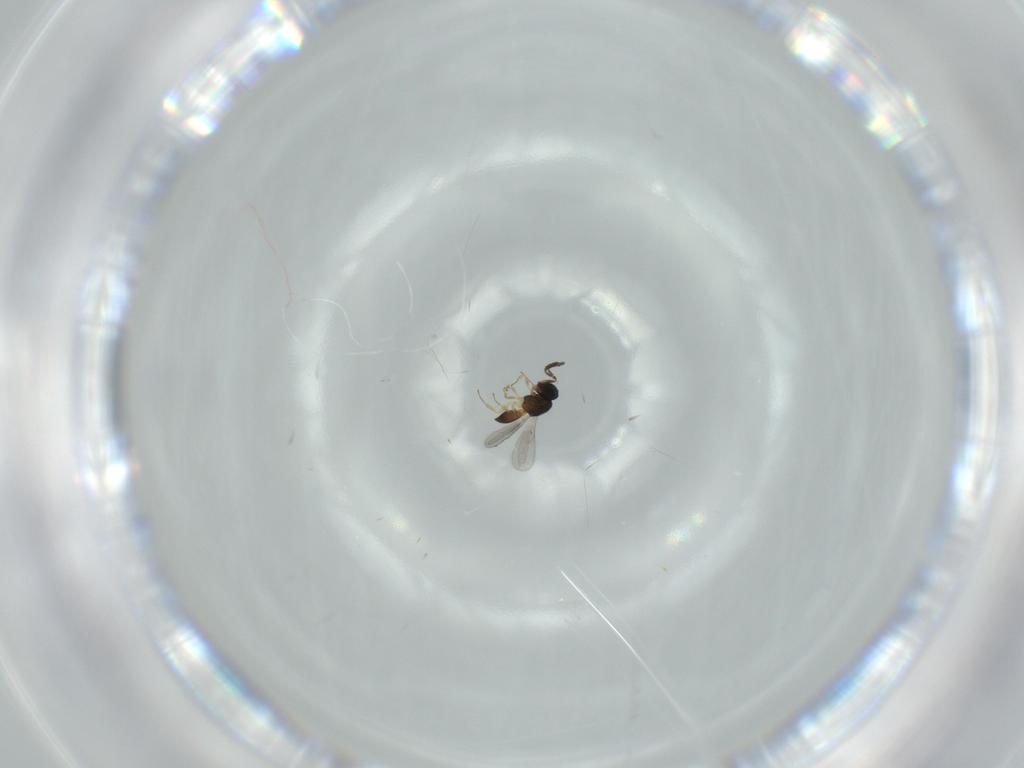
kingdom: Animalia
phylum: Arthropoda
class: Insecta
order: Hymenoptera
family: Scelionidae
